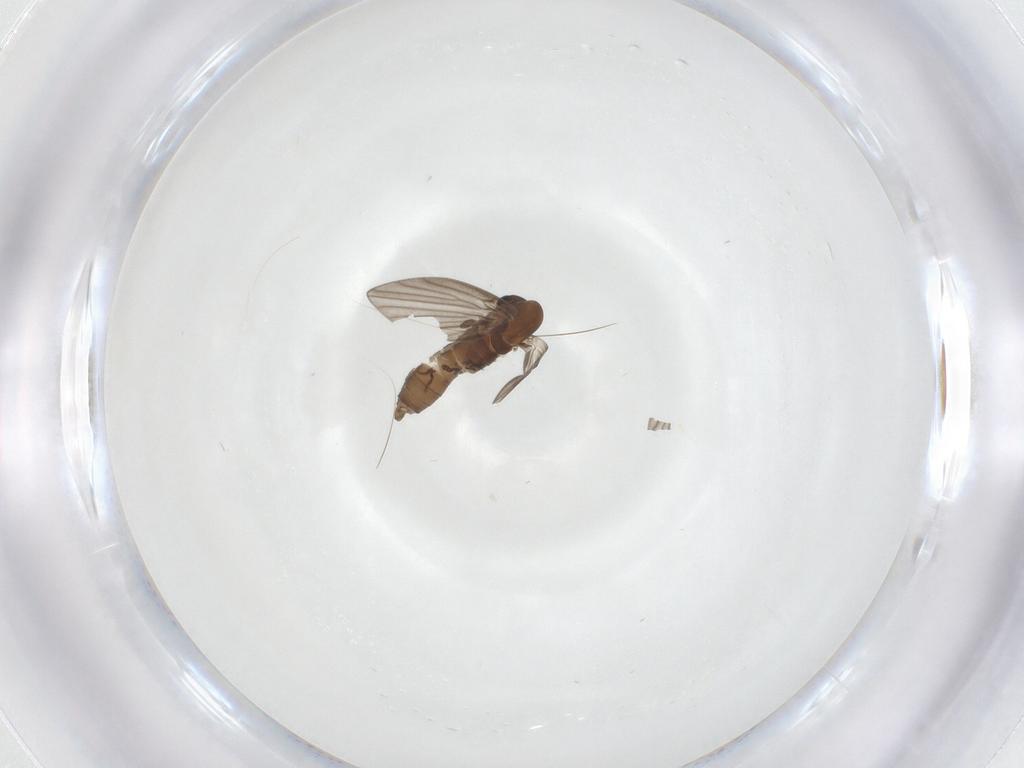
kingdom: Animalia
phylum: Arthropoda
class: Insecta
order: Diptera
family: Psychodidae
